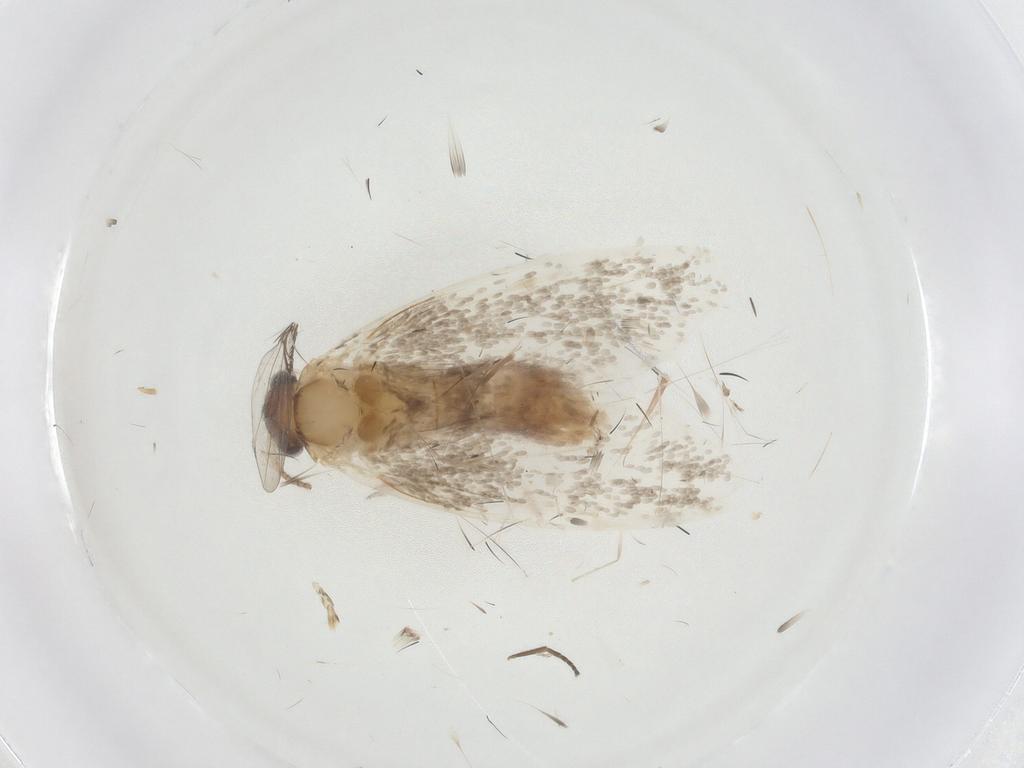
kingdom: Animalia
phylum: Arthropoda
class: Insecta
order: Lepidoptera
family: Dryadaulidae
